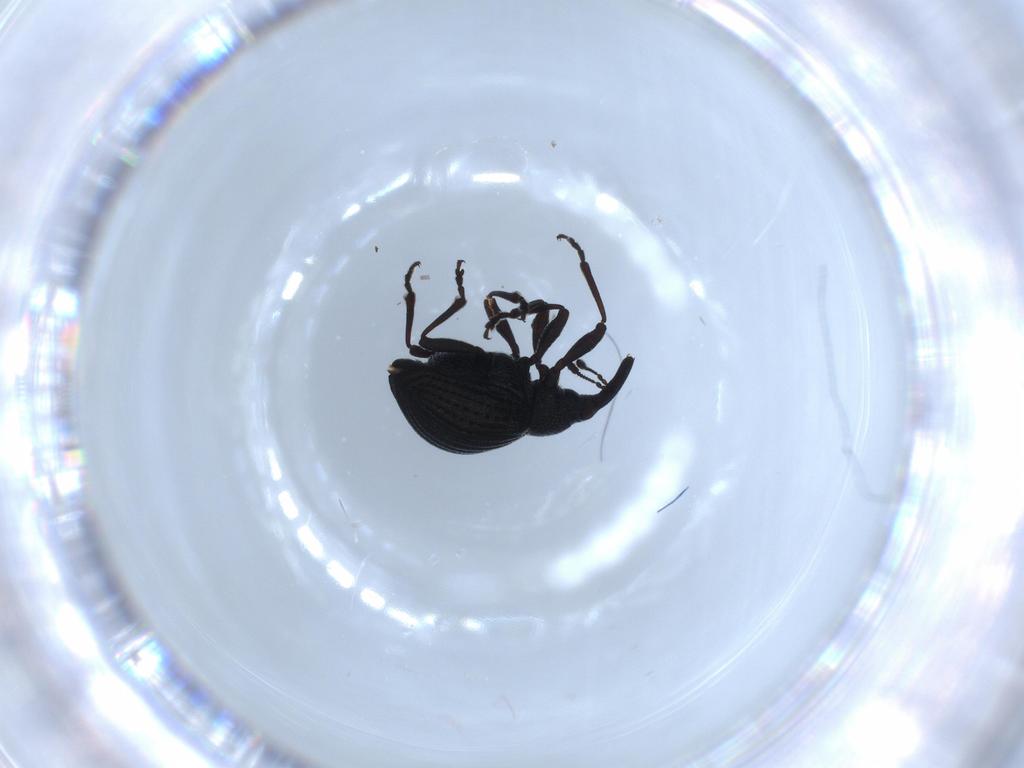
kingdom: Animalia
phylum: Arthropoda
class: Insecta
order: Coleoptera
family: Brentidae
